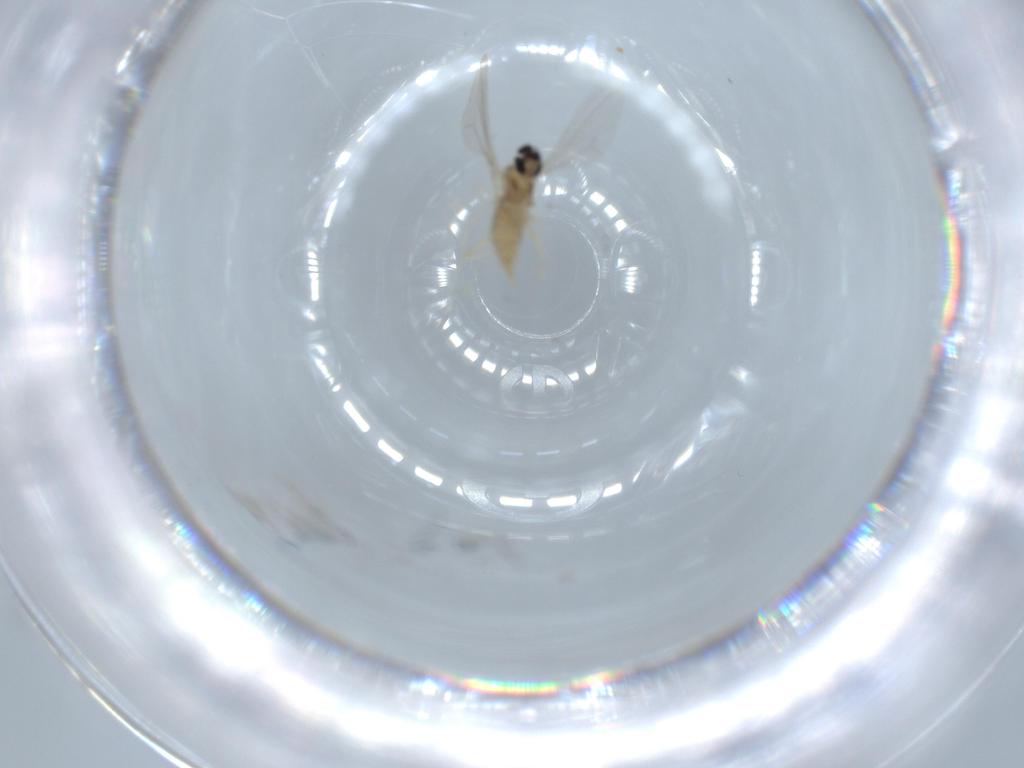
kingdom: Animalia
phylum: Arthropoda
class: Insecta
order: Diptera
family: Cecidomyiidae
